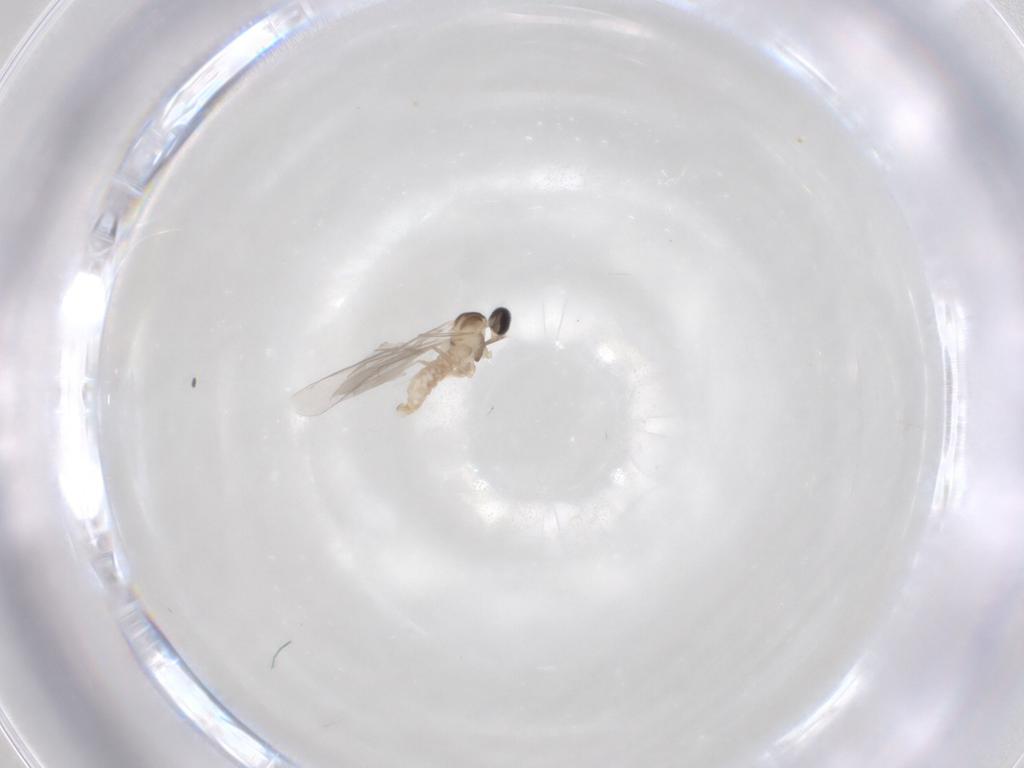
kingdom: Animalia
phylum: Arthropoda
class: Insecta
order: Diptera
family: Cecidomyiidae
